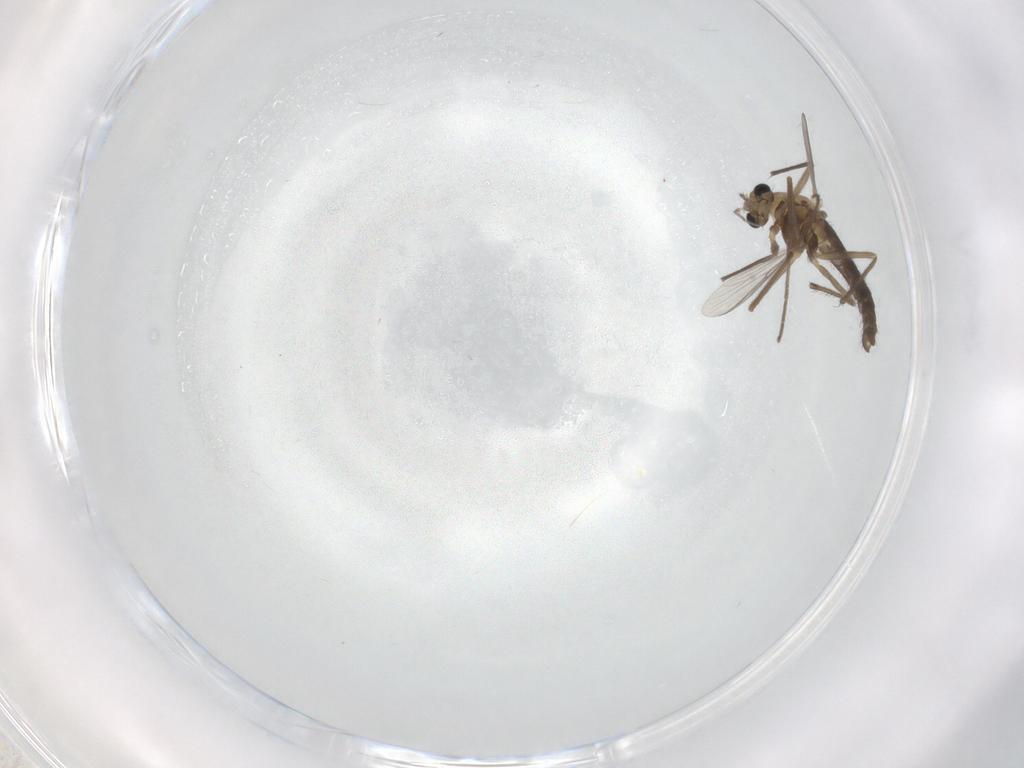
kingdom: Animalia
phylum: Arthropoda
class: Insecta
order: Diptera
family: Chironomidae
